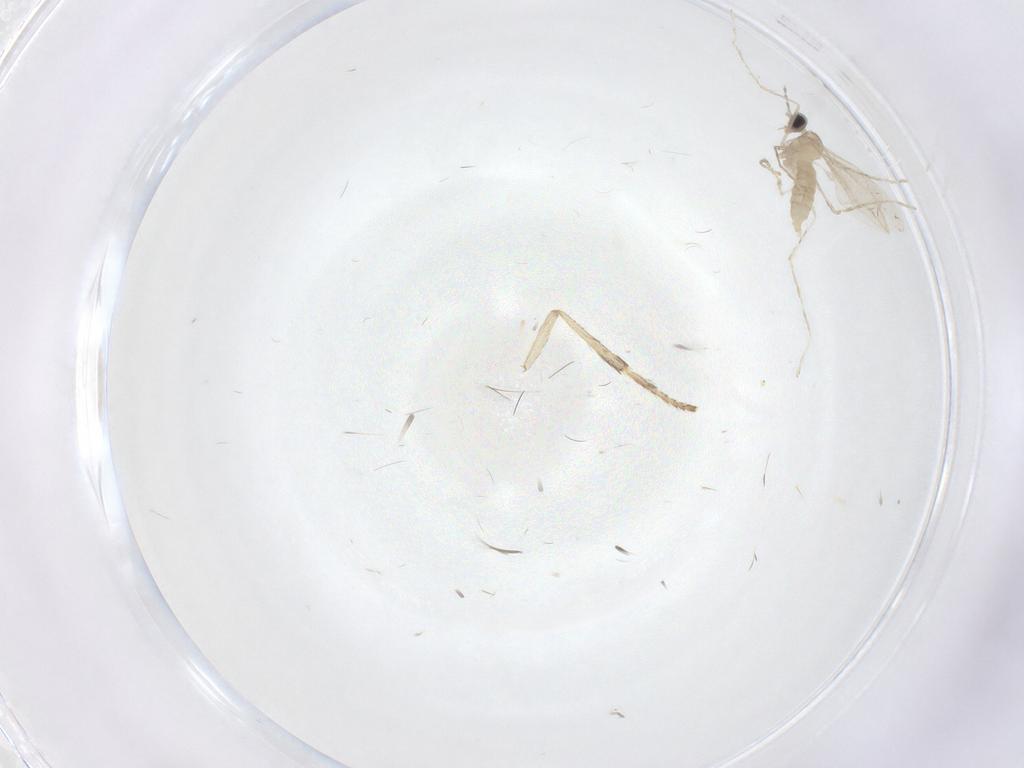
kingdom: Animalia
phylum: Arthropoda
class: Insecta
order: Diptera
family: Cecidomyiidae
